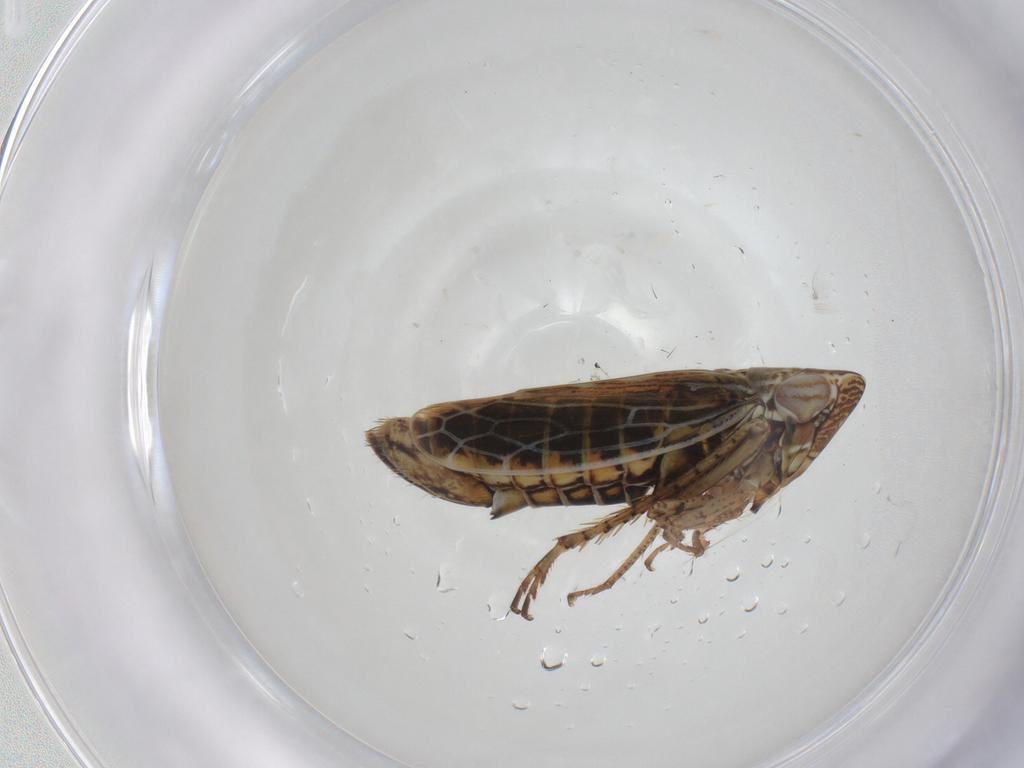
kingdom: Animalia
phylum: Arthropoda
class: Insecta
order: Hemiptera
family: Cicadellidae
